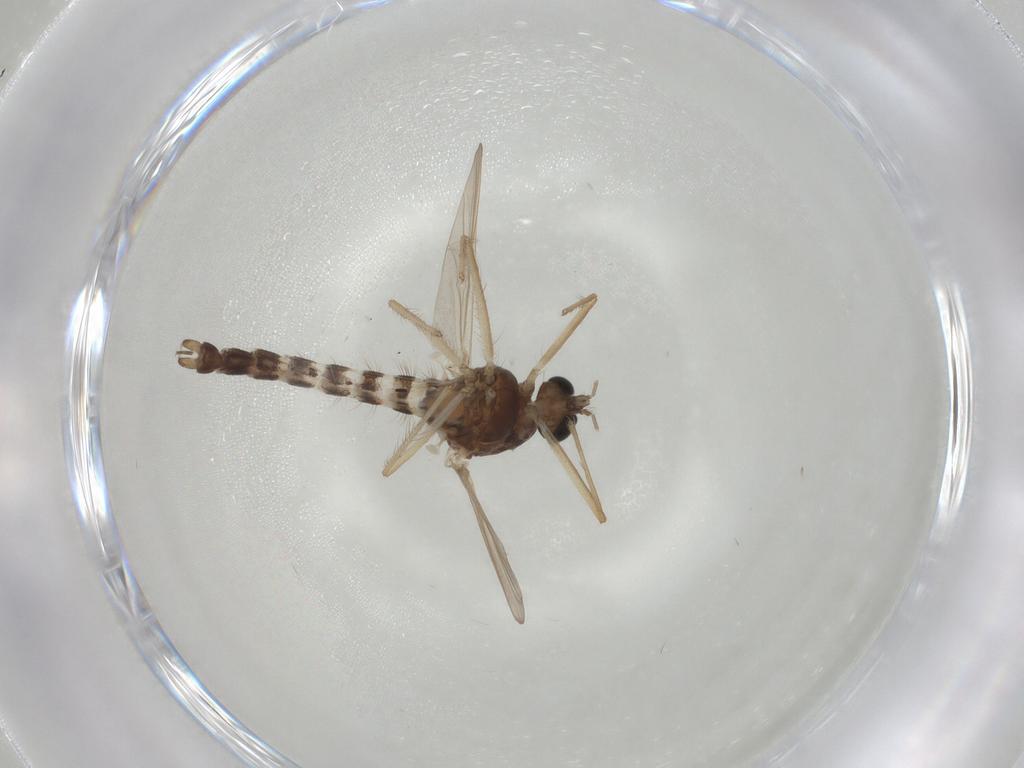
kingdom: Animalia
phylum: Arthropoda
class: Insecta
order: Diptera
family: Chironomidae
